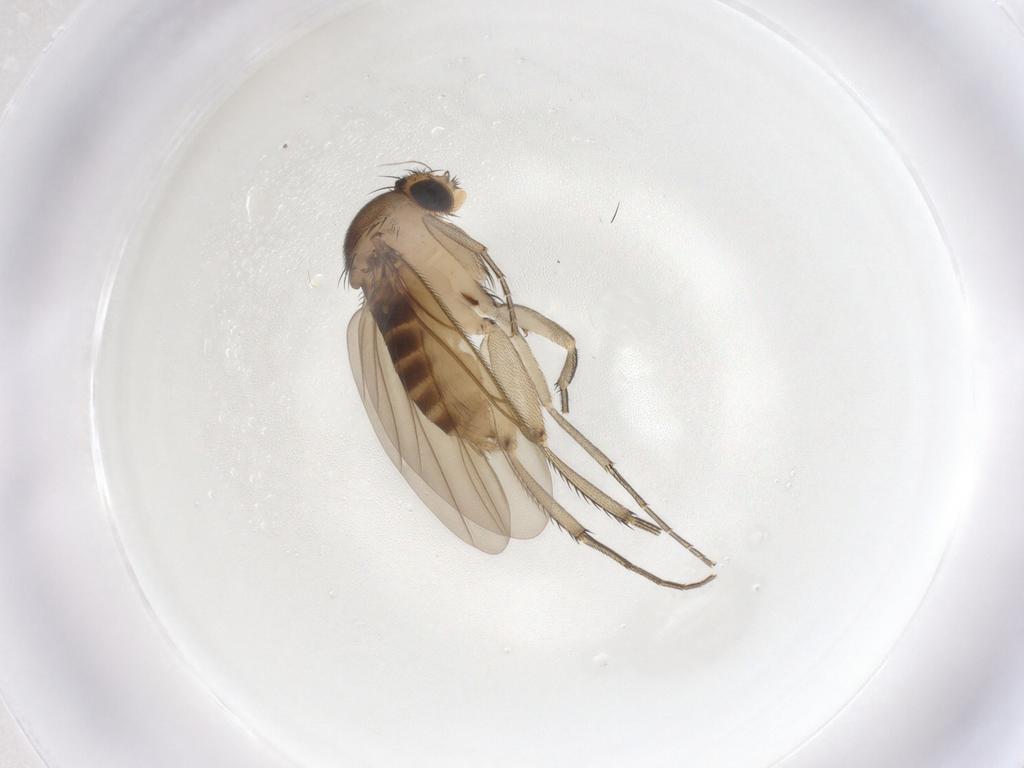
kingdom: Animalia
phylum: Arthropoda
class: Insecta
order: Diptera
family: Phoridae
